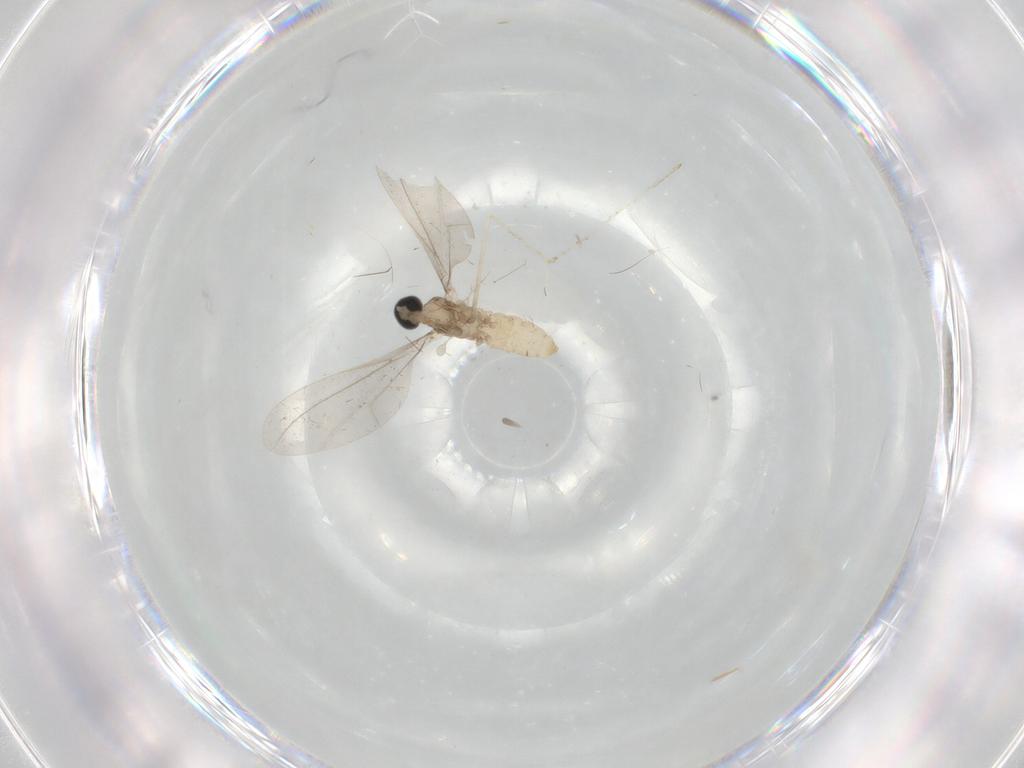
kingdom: Animalia
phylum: Arthropoda
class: Insecta
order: Diptera
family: Cecidomyiidae
